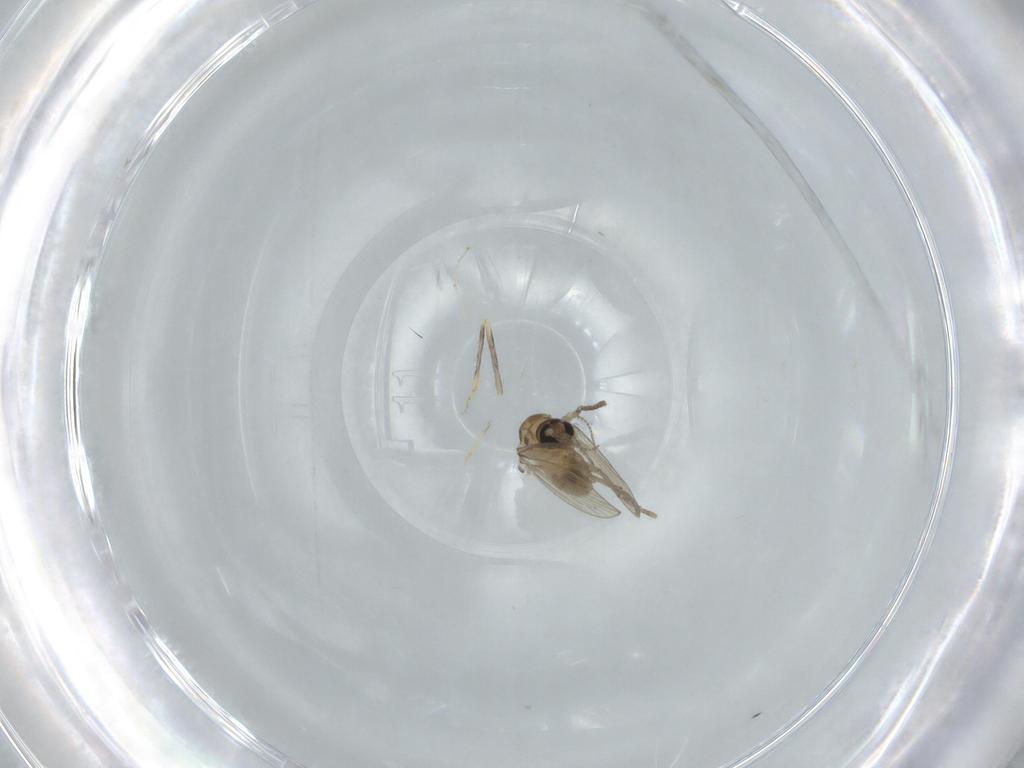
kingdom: Animalia
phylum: Arthropoda
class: Insecta
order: Diptera
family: Cecidomyiidae
